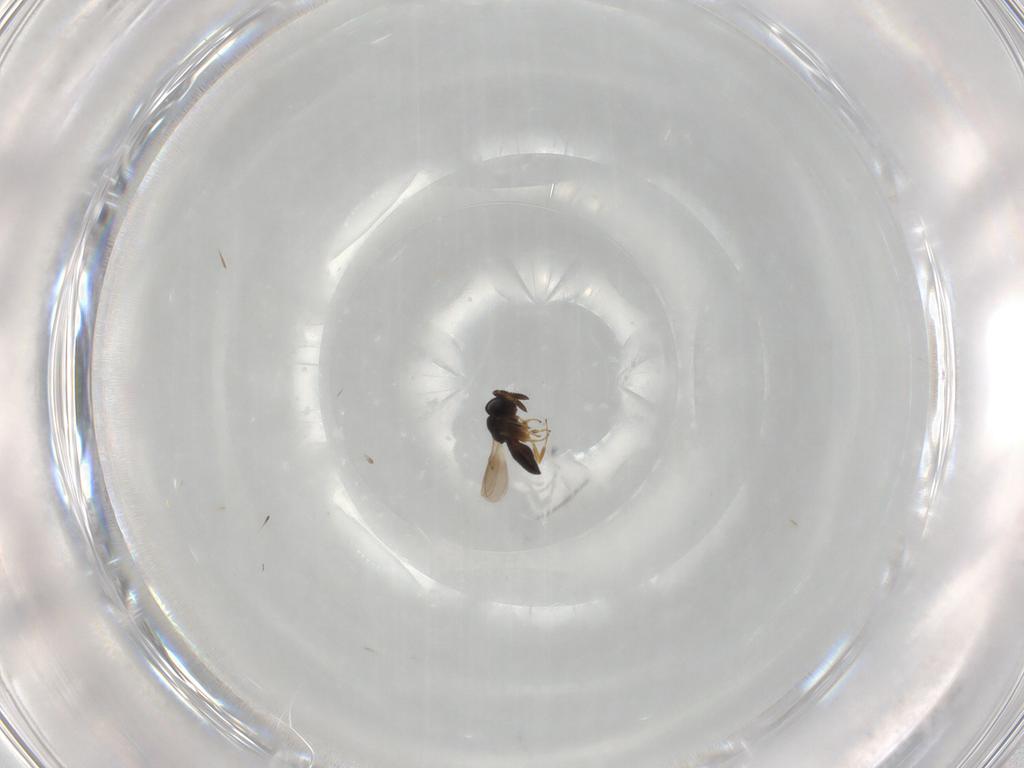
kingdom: Animalia
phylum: Arthropoda
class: Insecta
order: Hymenoptera
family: Scelionidae
